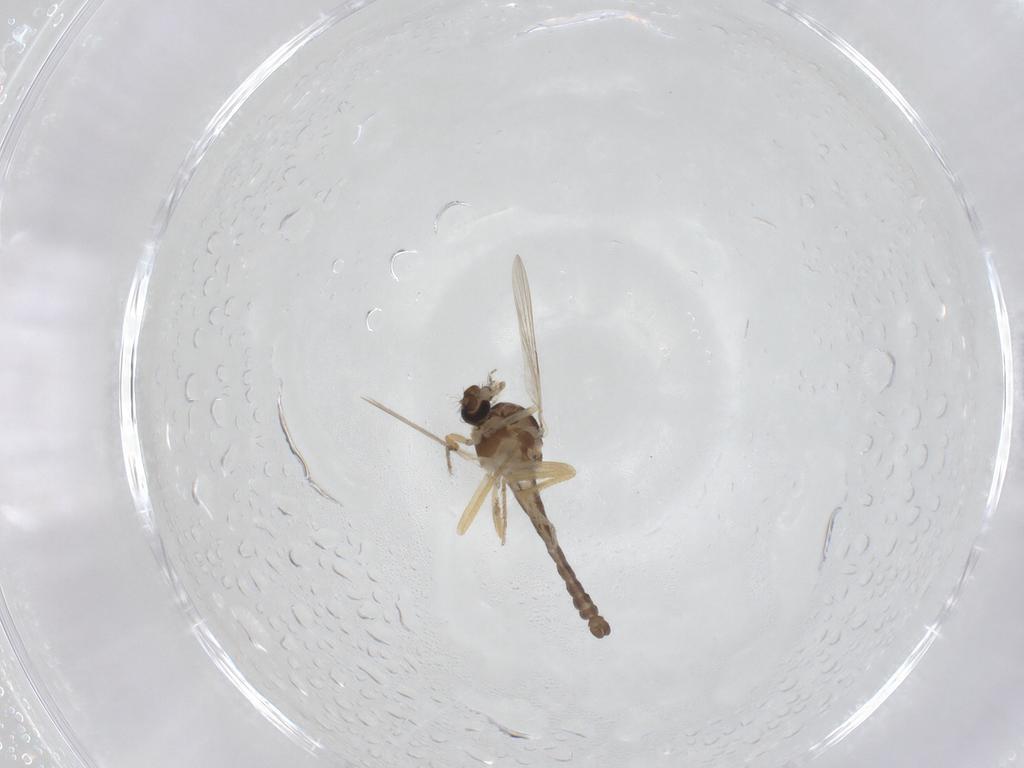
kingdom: Animalia
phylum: Arthropoda
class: Insecta
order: Diptera
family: Ceratopogonidae
